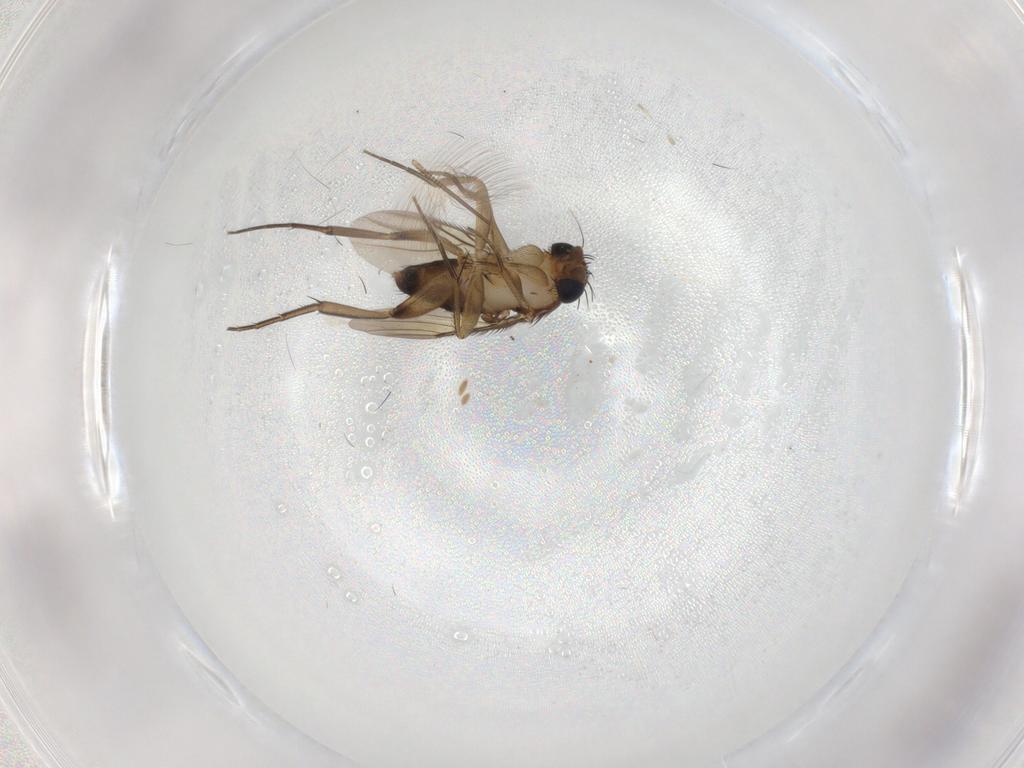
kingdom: Animalia
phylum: Arthropoda
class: Insecta
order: Diptera
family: Phoridae
